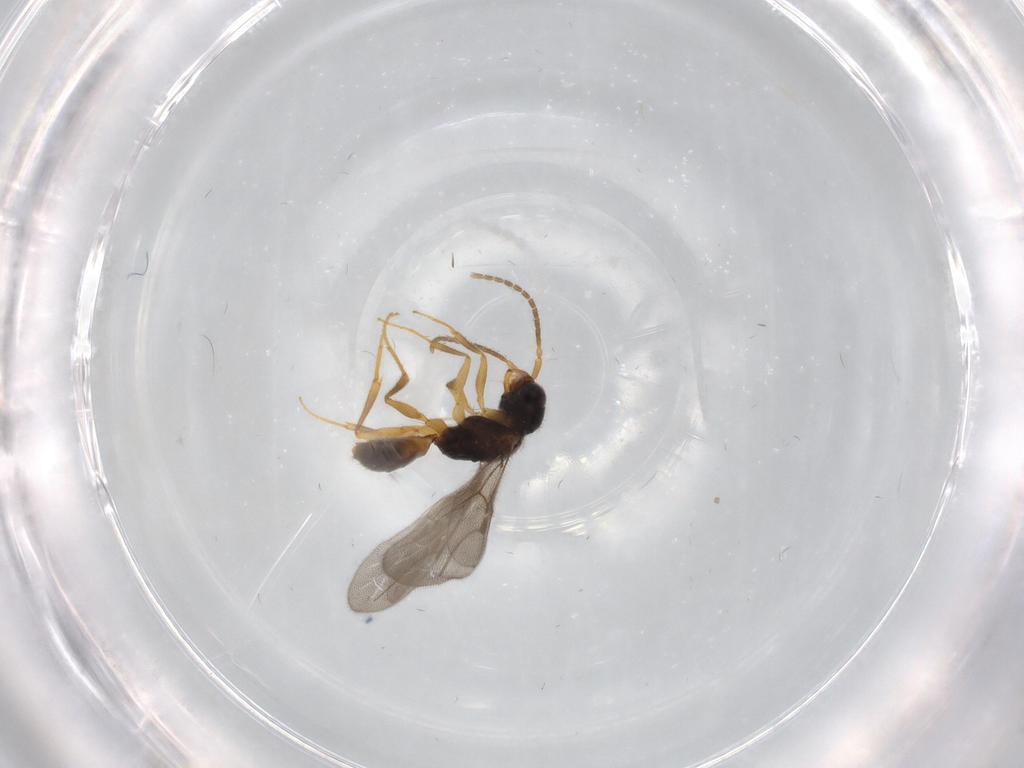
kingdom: Animalia
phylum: Arthropoda
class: Insecta
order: Hymenoptera
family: Bethylidae
